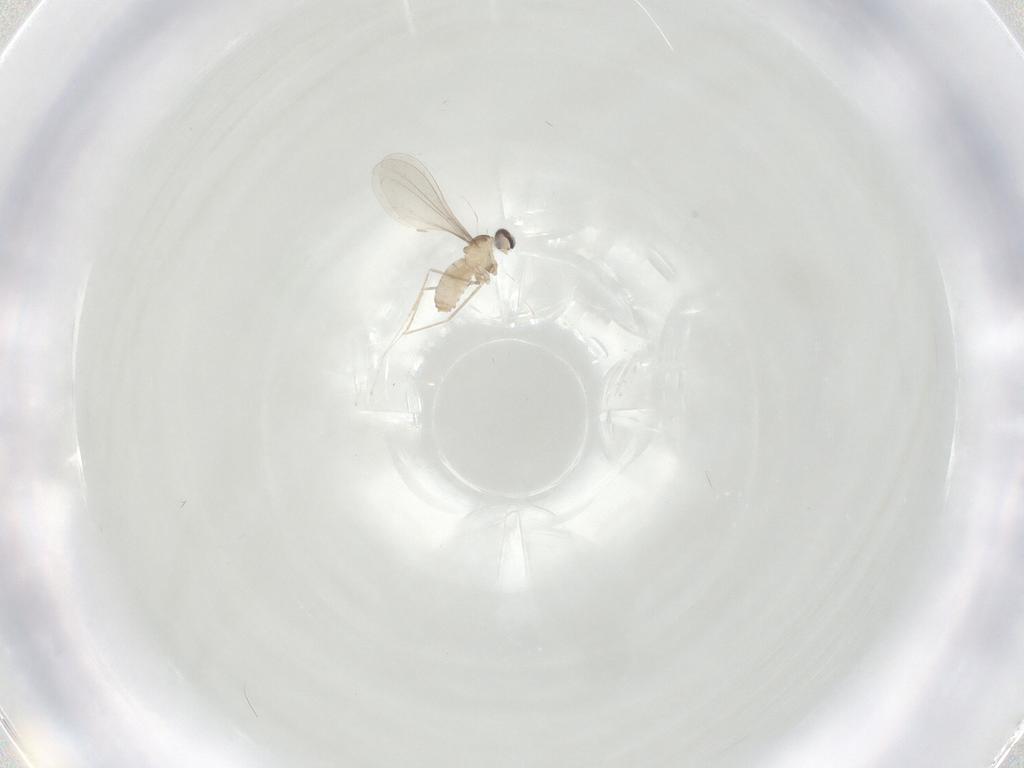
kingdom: Animalia
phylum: Arthropoda
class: Insecta
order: Diptera
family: Cecidomyiidae
